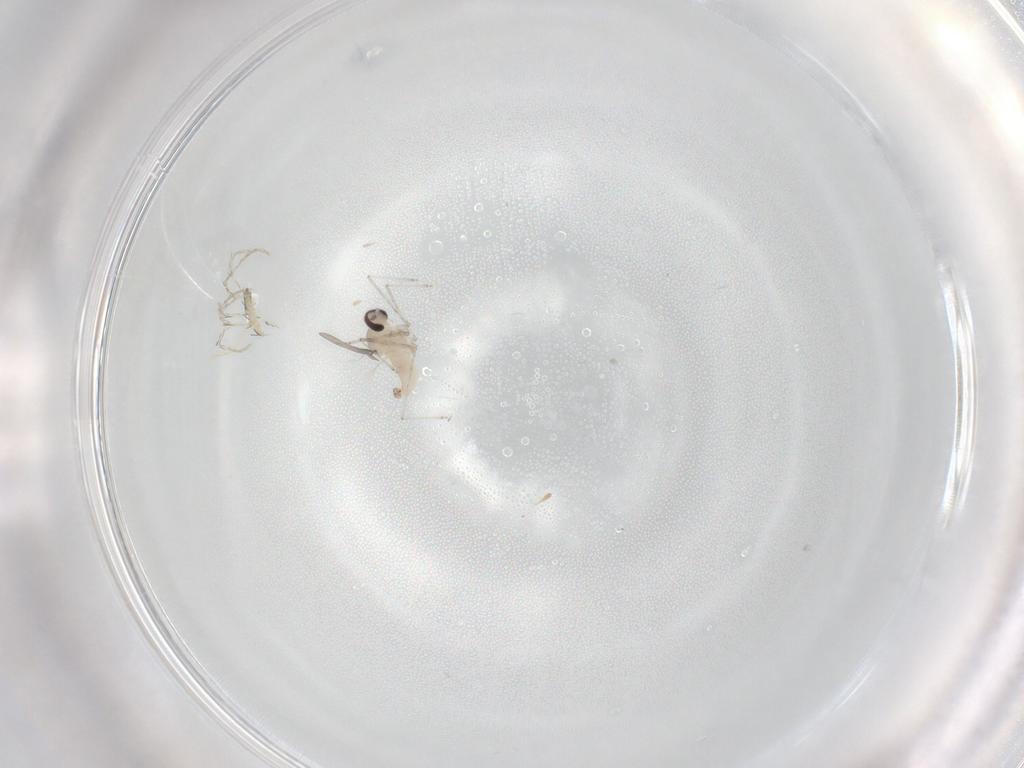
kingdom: Animalia
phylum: Arthropoda
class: Insecta
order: Diptera
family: Cecidomyiidae
